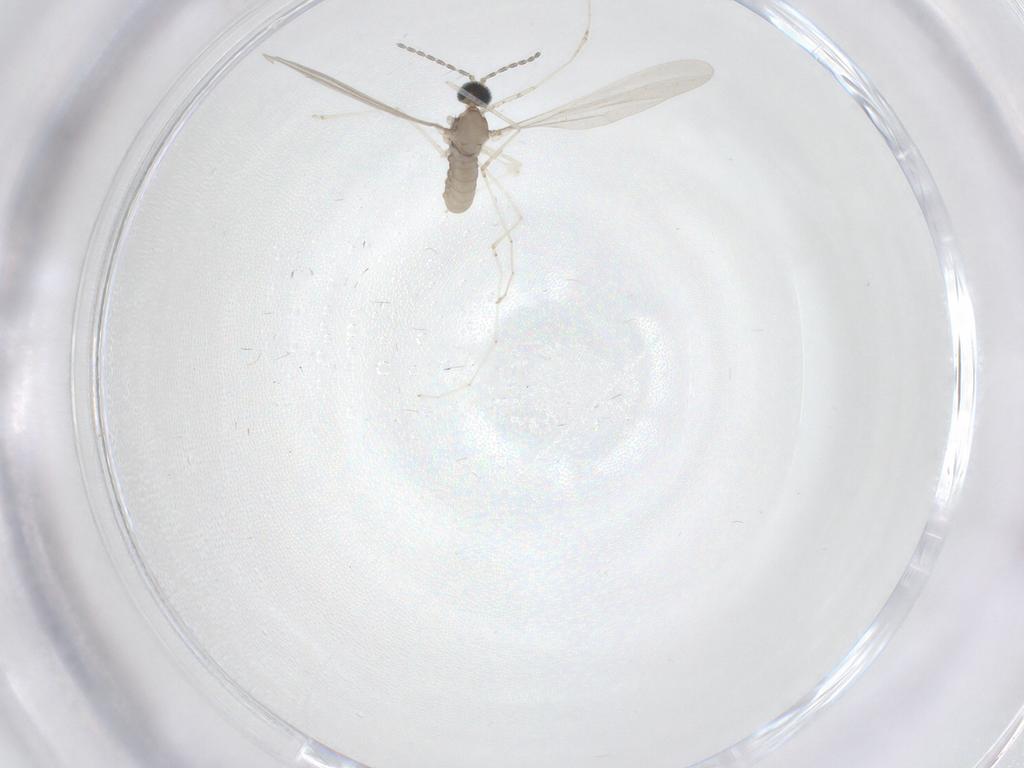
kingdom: Animalia
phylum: Arthropoda
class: Insecta
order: Diptera
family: Cecidomyiidae
